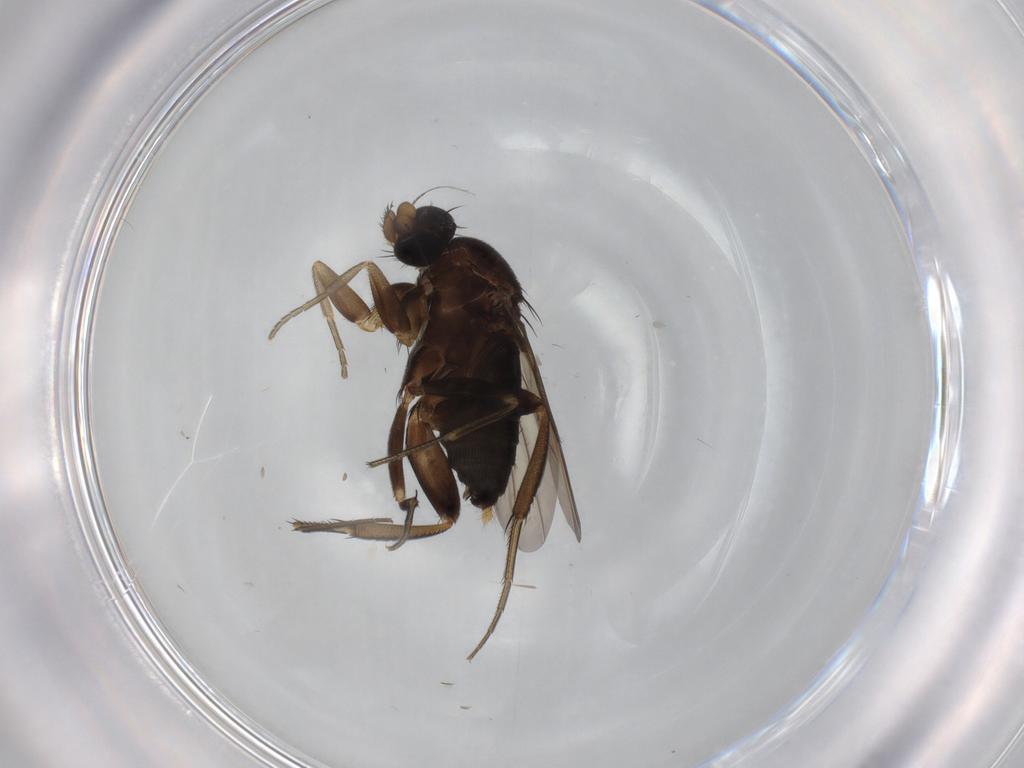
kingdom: Animalia
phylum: Arthropoda
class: Insecta
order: Diptera
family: Phoridae
